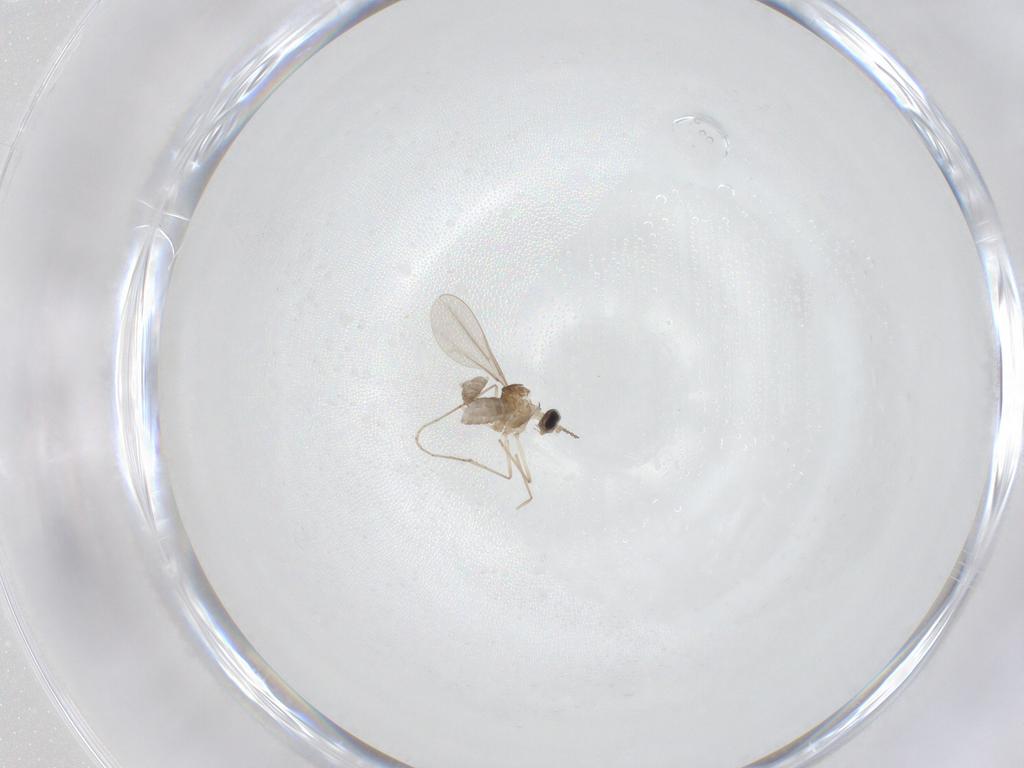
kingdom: Animalia
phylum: Arthropoda
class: Insecta
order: Diptera
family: Cecidomyiidae
